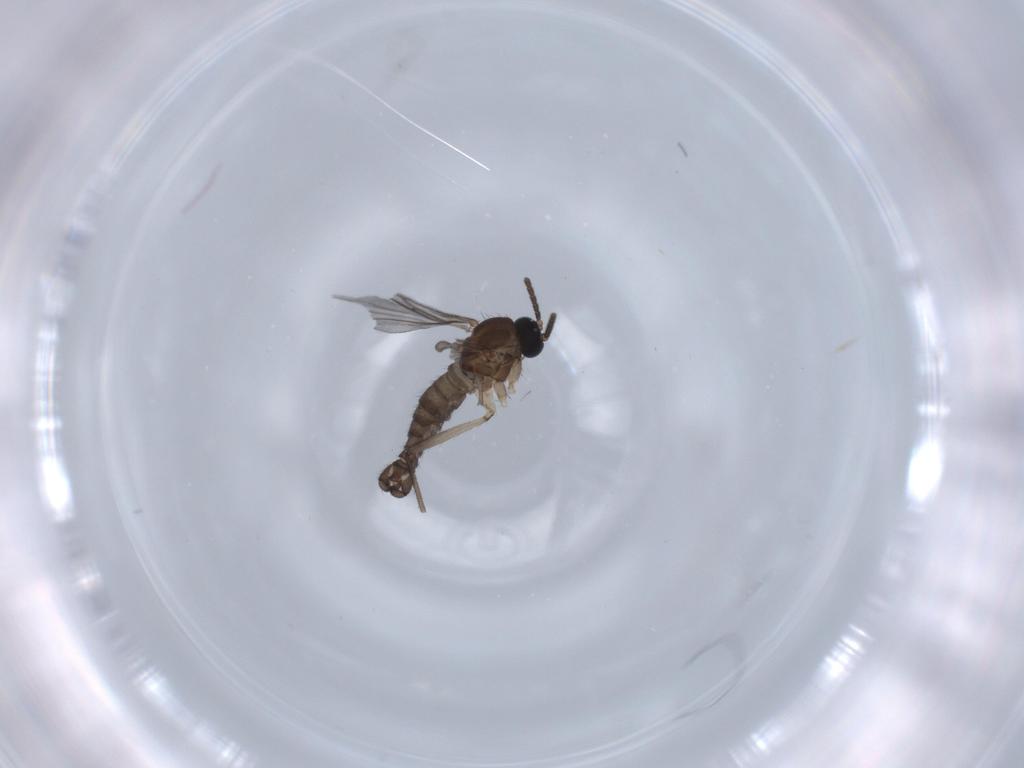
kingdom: Animalia
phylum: Arthropoda
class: Insecta
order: Diptera
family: Sciaridae
